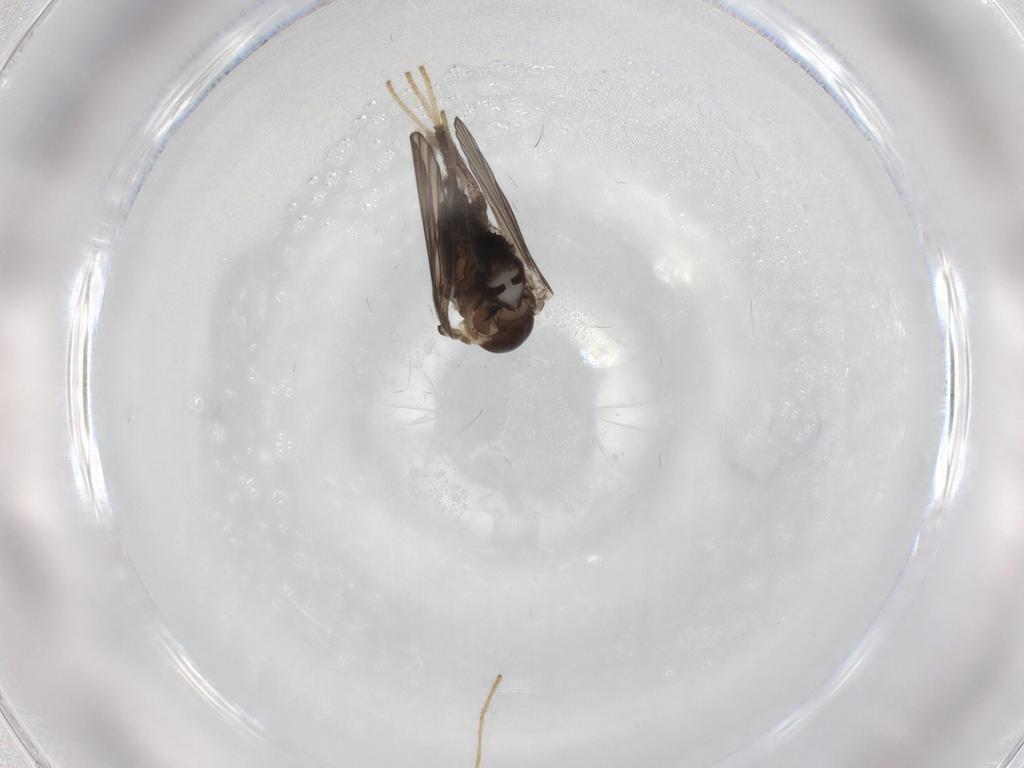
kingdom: Animalia
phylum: Arthropoda
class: Insecta
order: Diptera
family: Psychodidae
